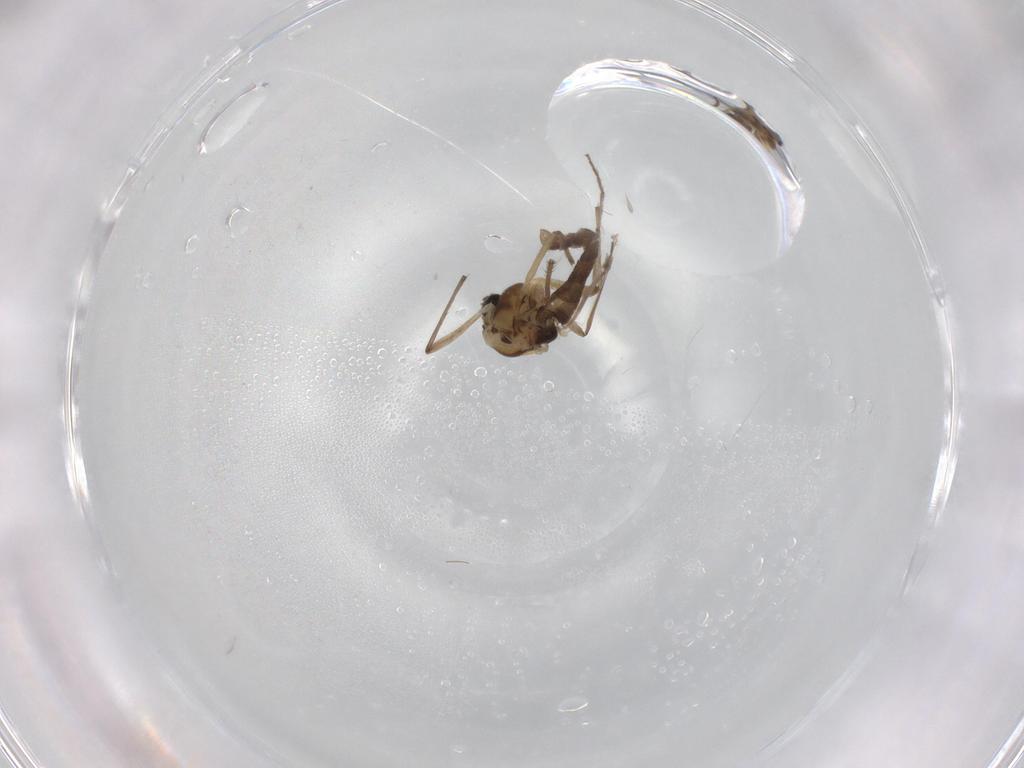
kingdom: Animalia
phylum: Arthropoda
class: Insecta
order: Diptera
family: Chironomidae
